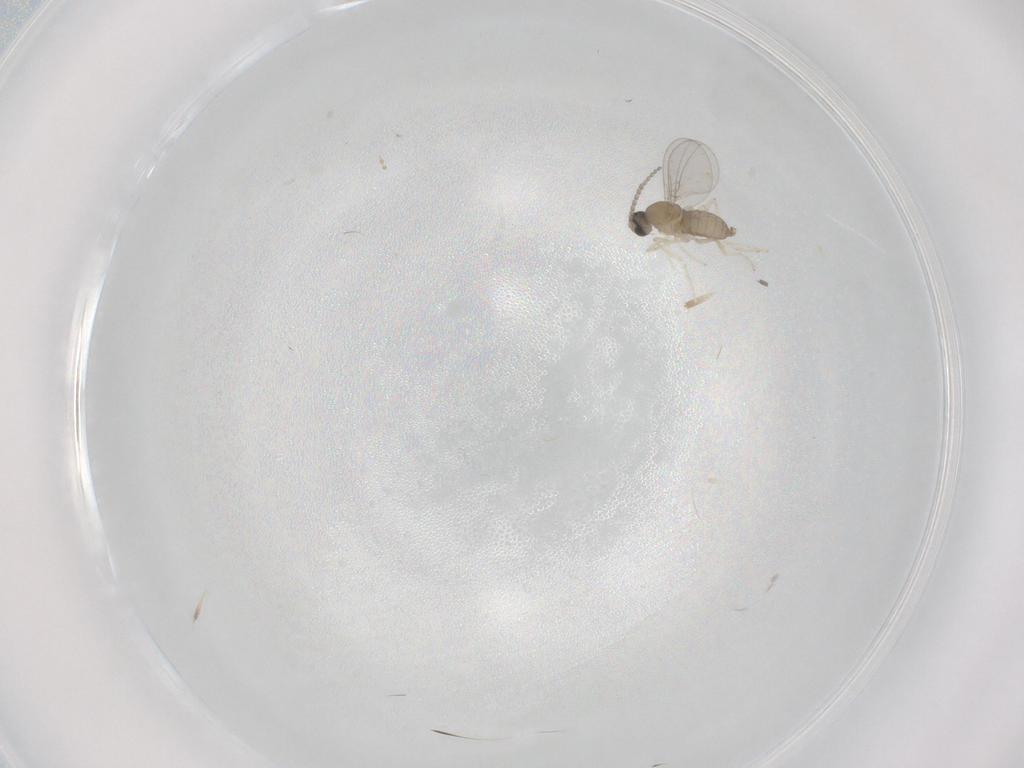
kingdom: Animalia
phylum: Arthropoda
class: Insecta
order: Diptera
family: Cecidomyiidae
